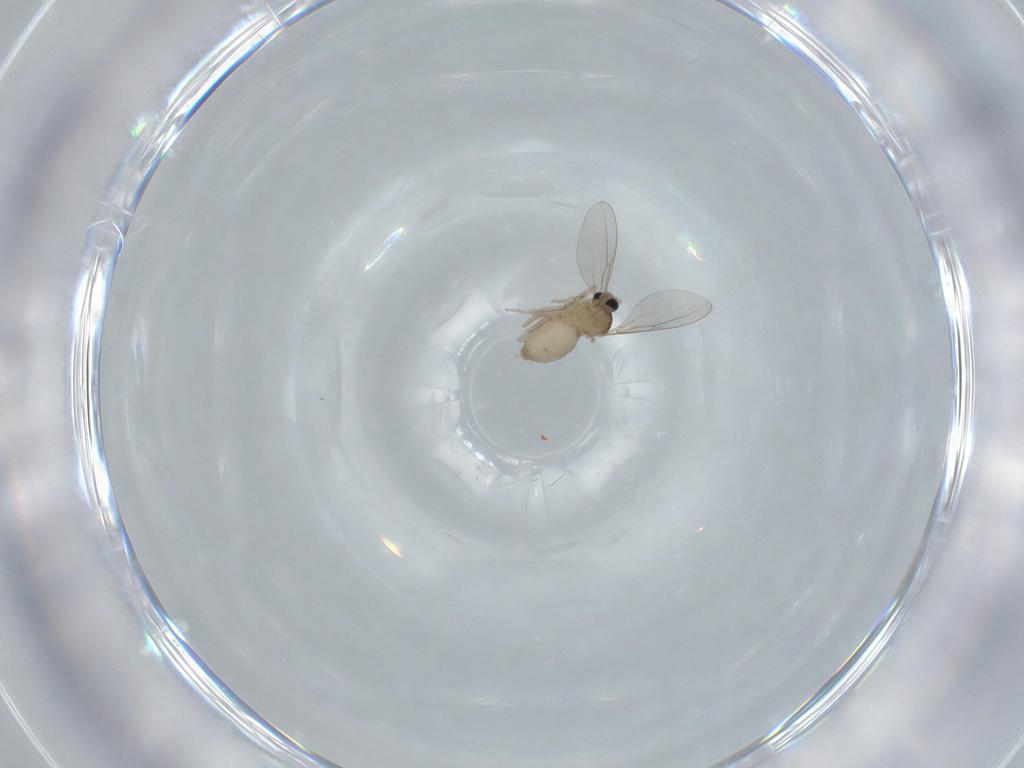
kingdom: Animalia
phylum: Arthropoda
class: Insecta
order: Diptera
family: Cecidomyiidae
